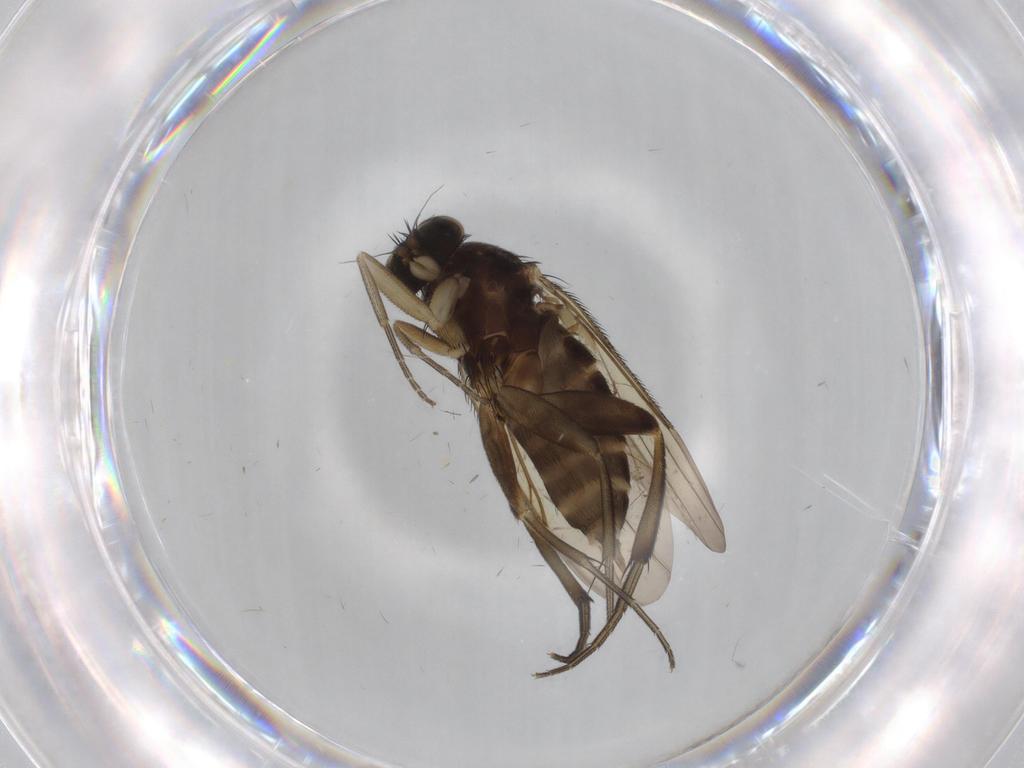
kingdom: Animalia
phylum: Arthropoda
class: Insecta
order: Diptera
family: Phoridae
